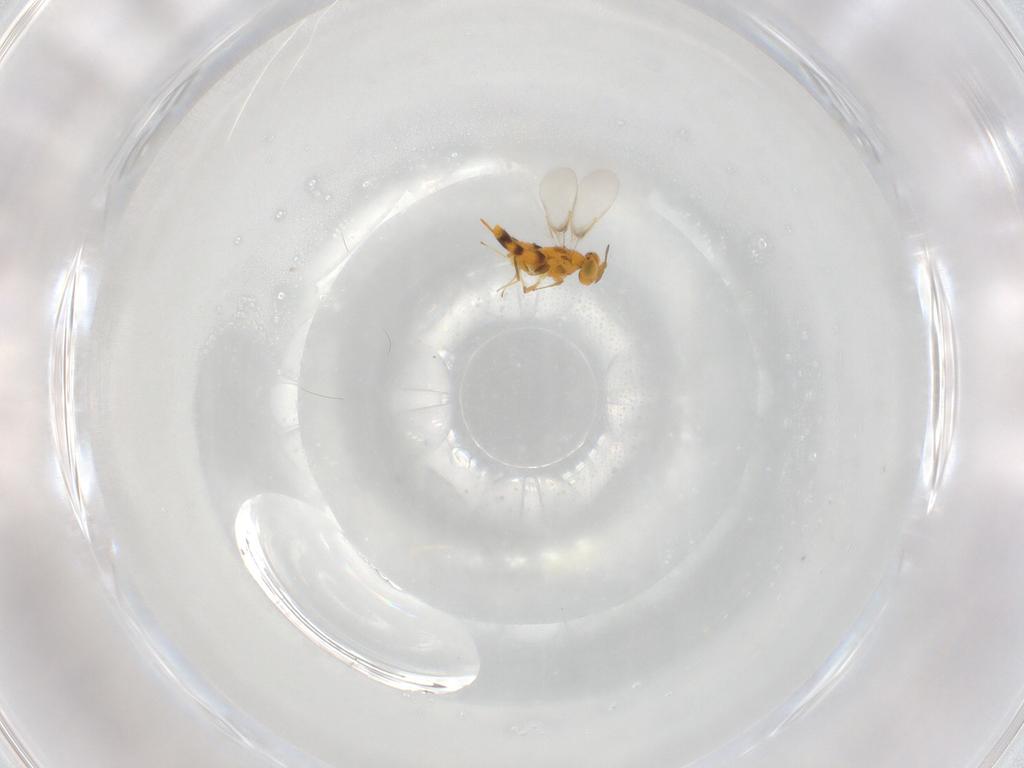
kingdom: Animalia
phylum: Arthropoda
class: Insecta
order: Hymenoptera
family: Aphelinidae
